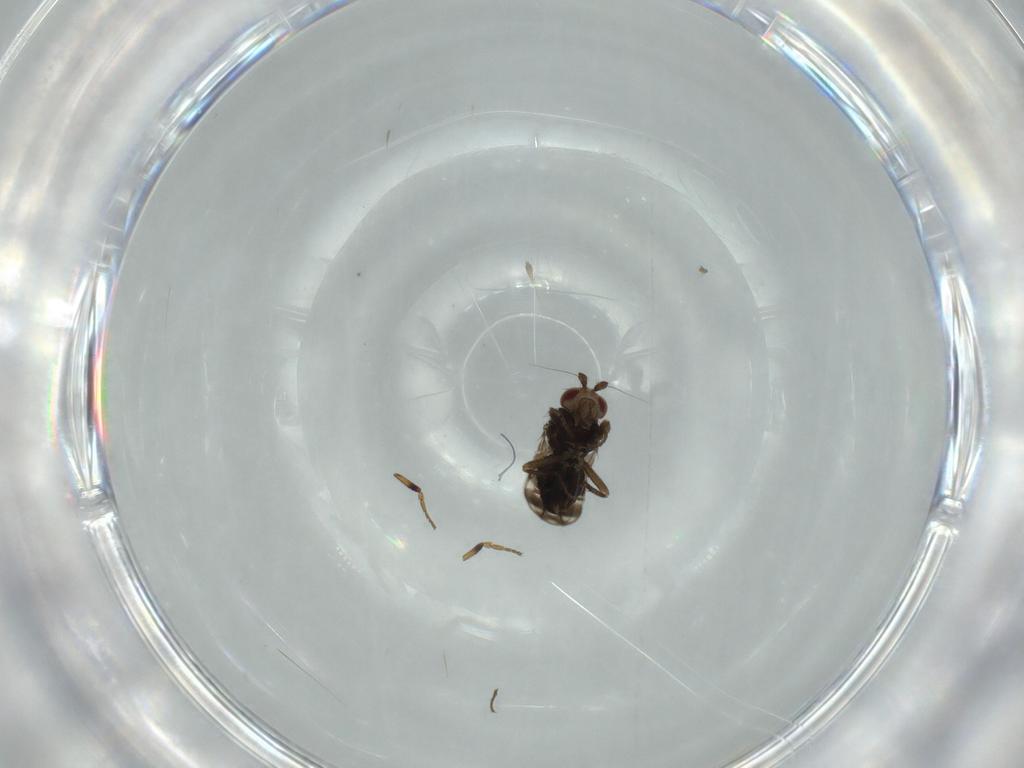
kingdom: Animalia
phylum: Arthropoda
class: Insecta
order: Diptera
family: Sphaeroceridae
